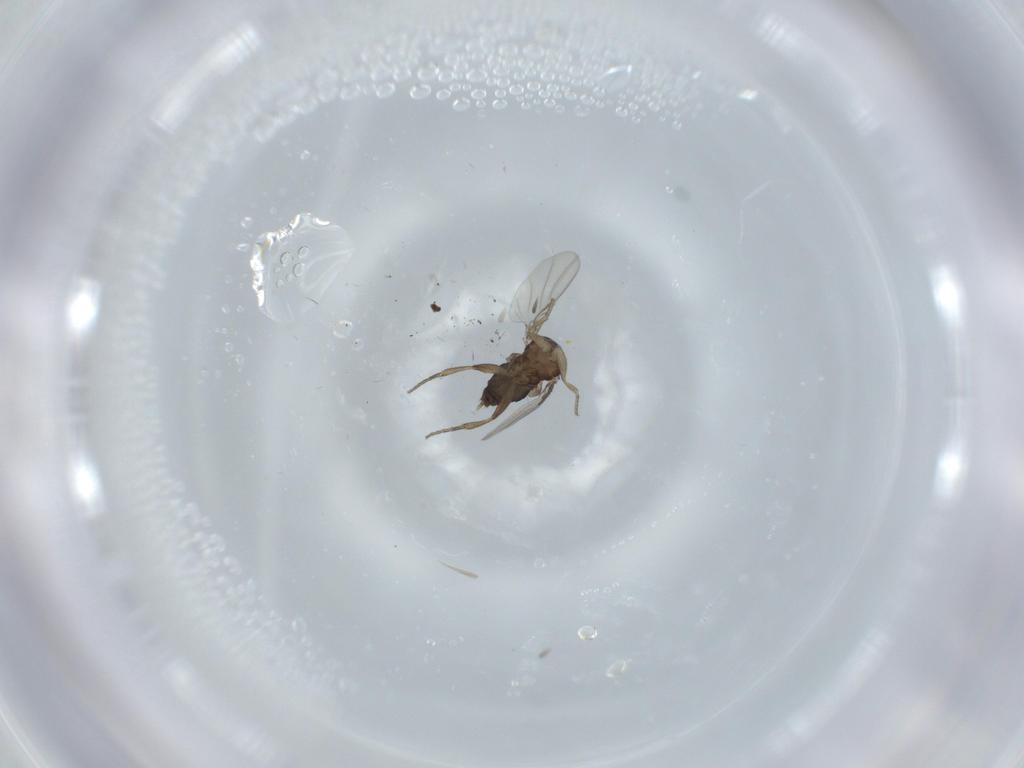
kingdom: Animalia
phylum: Arthropoda
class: Insecta
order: Diptera
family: Phoridae
